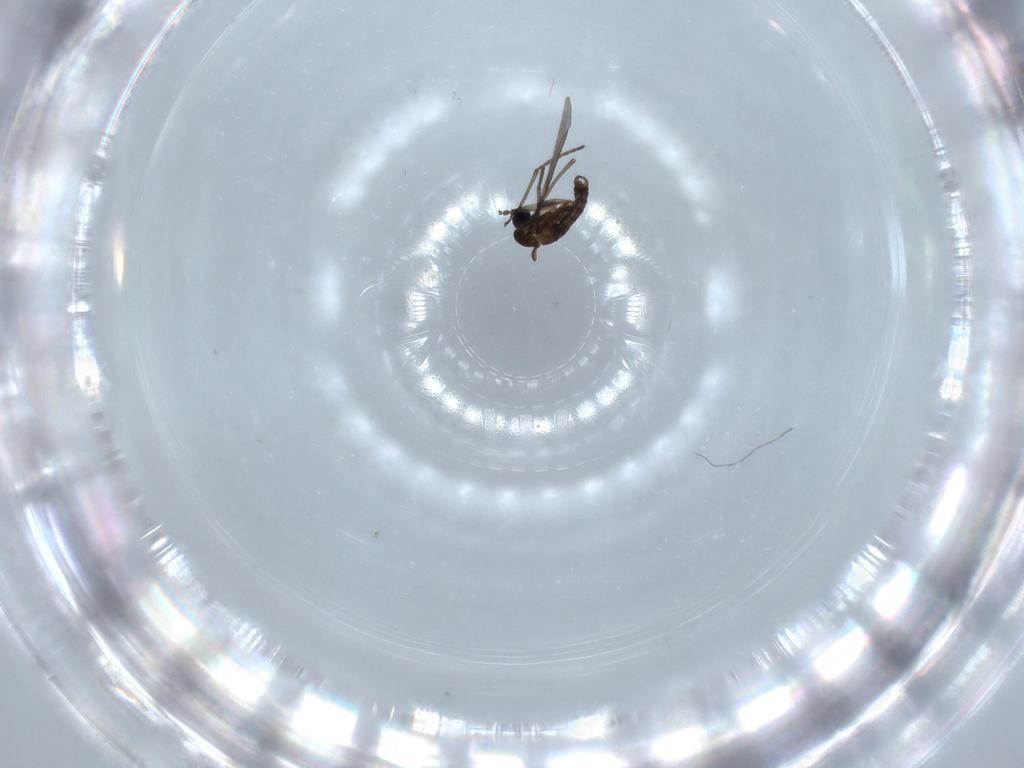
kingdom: Animalia
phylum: Arthropoda
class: Insecta
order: Diptera
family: Sciaridae
